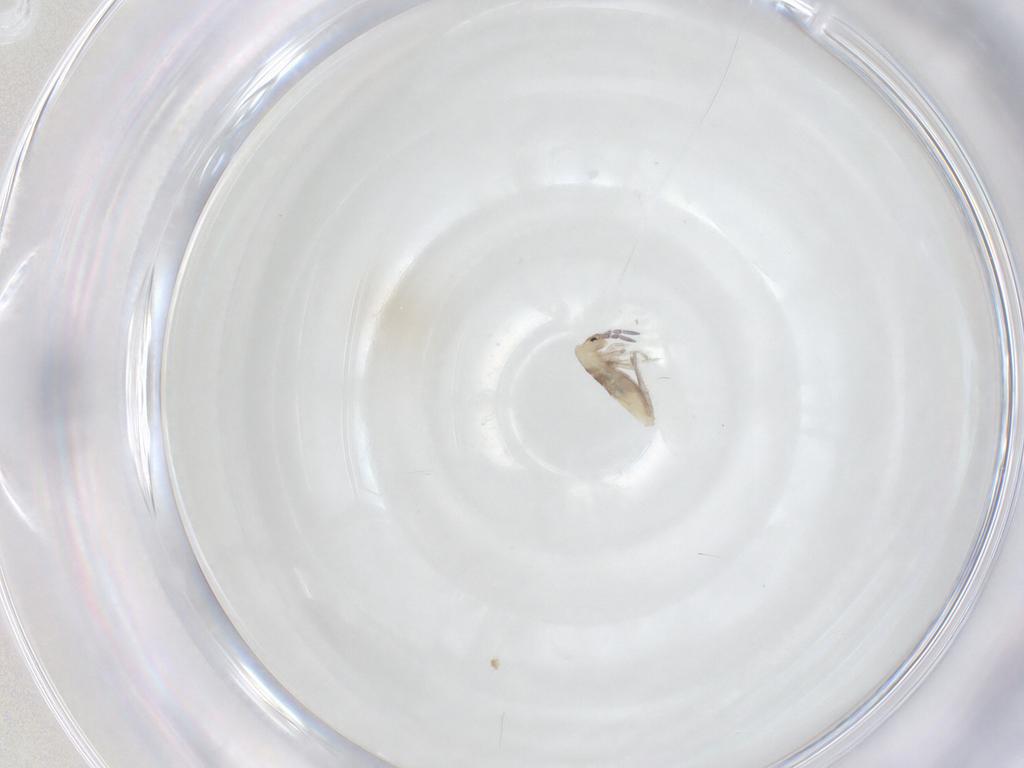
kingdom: Animalia
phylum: Arthropoda
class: Collembola
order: Entomobryomorpha
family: Entomobryidae
